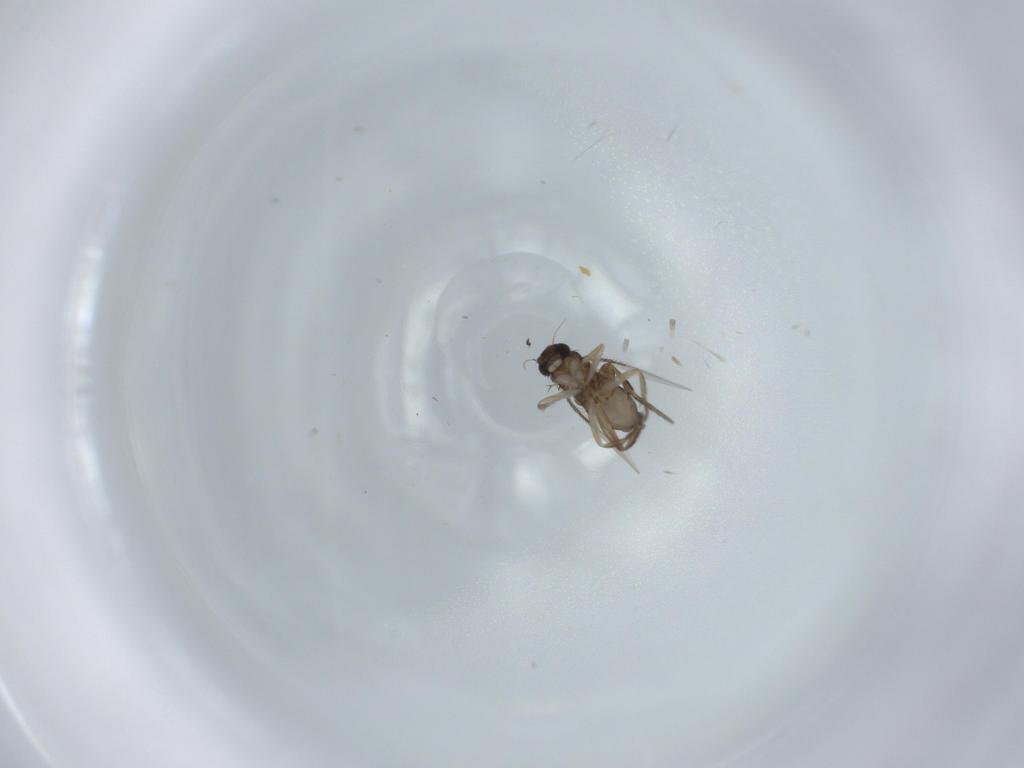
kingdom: Animalia
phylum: Arthropoda
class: Insecta
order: Diptera
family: Phoridae
